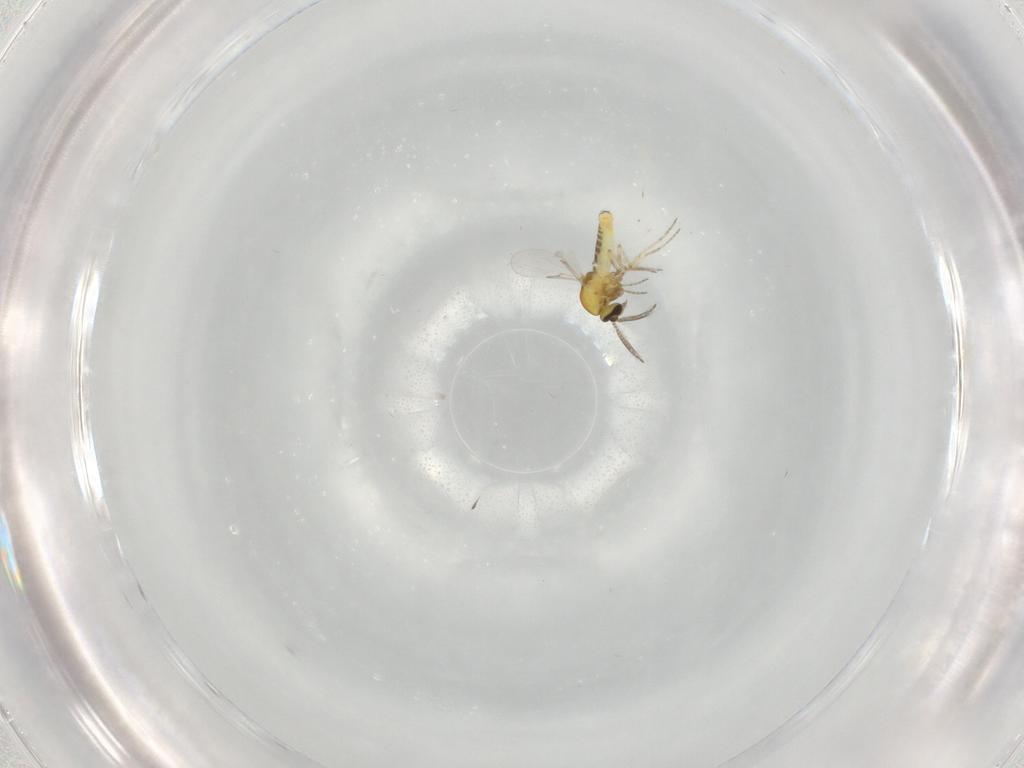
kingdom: Animalia
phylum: Arthropoda
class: Insecta
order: Diptera
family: Ceratopogonidae
